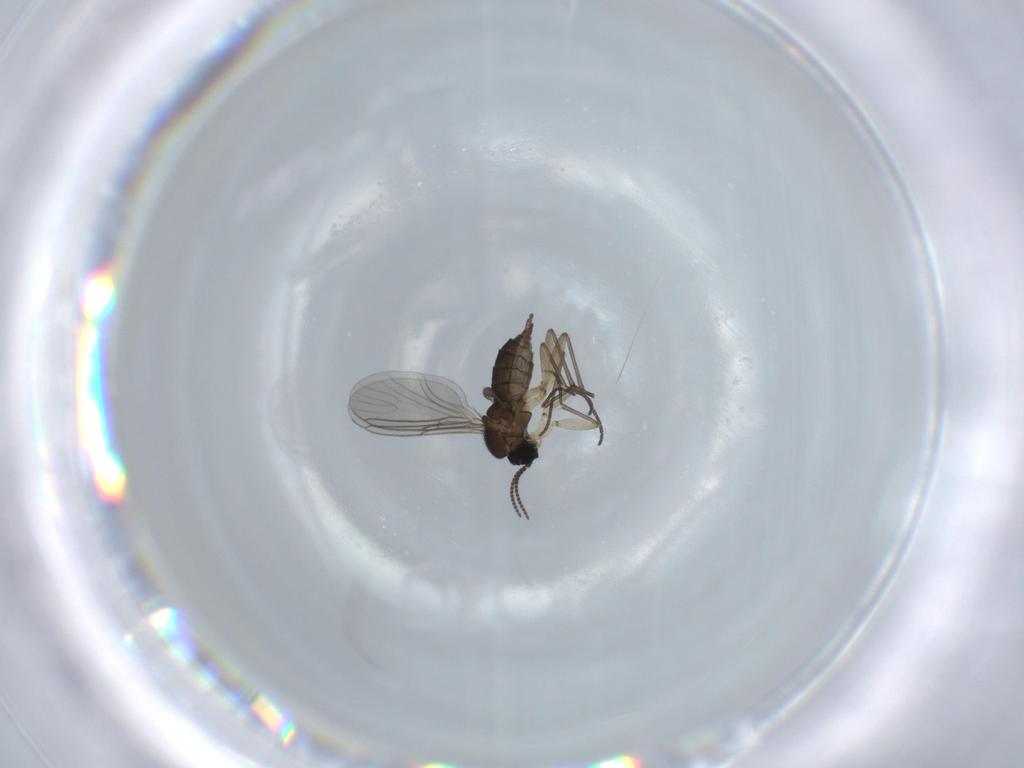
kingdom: Animalia
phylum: Arthropoda
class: Insecta
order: Diptera
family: Sciaridae
